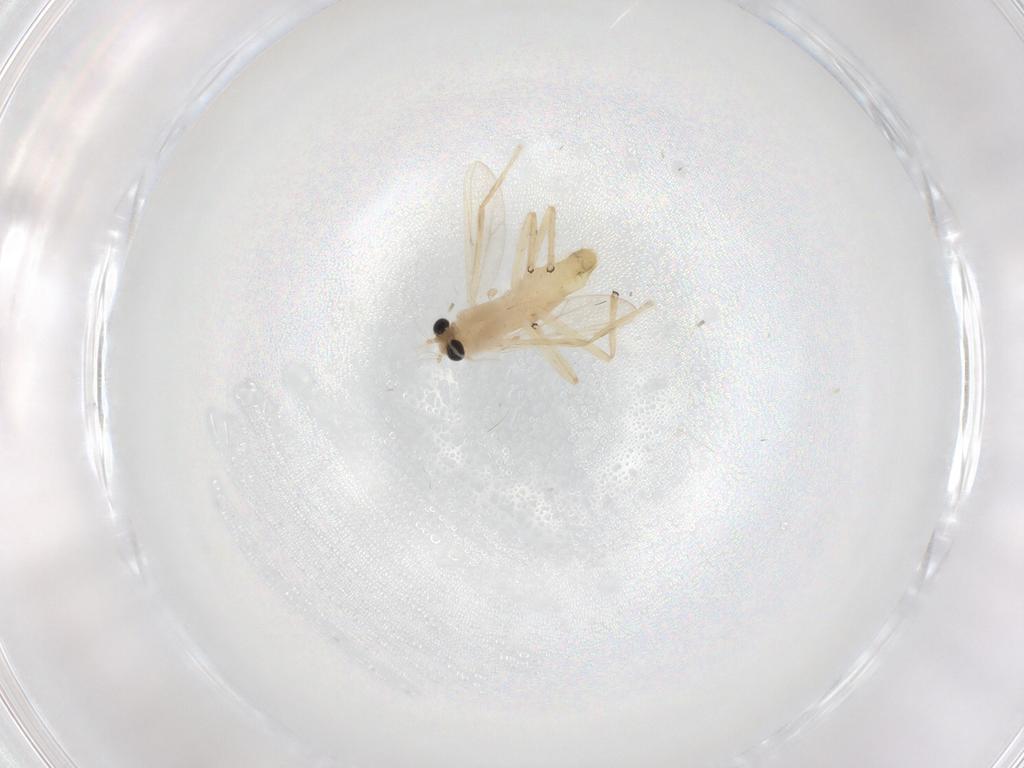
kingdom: Animalia
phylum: Arthropoda
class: Insecta
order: Diptera
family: Chironomidae
